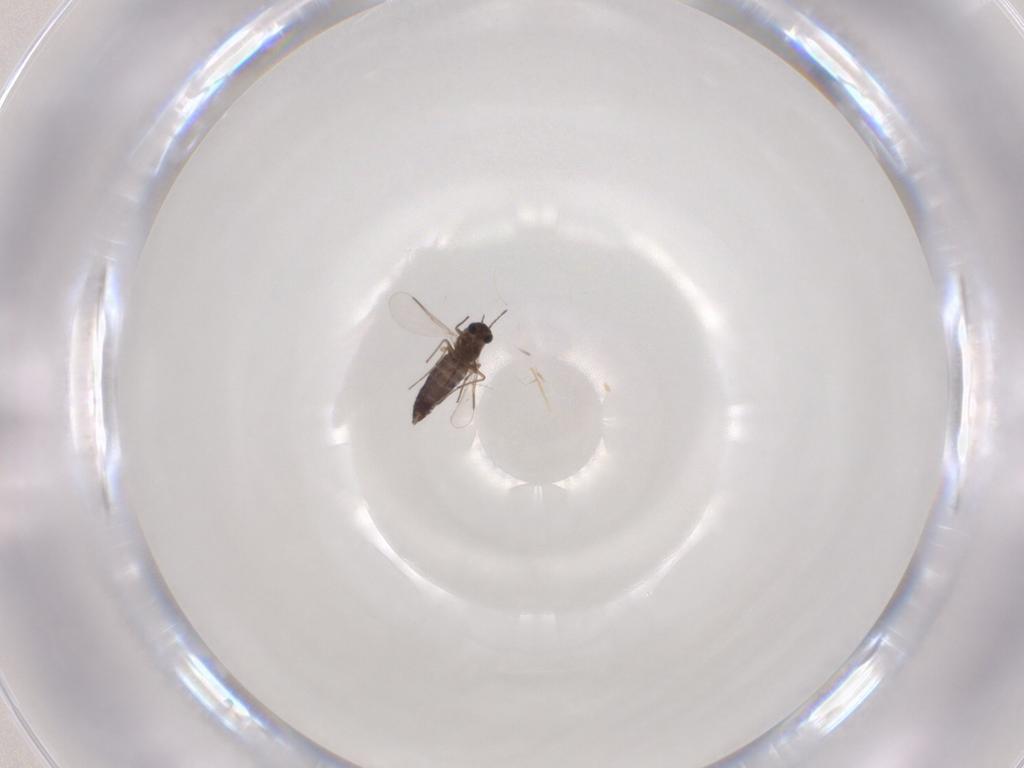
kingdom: Animalia
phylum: Arthropoda
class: Insecta
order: Diptera
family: Chironomidae
